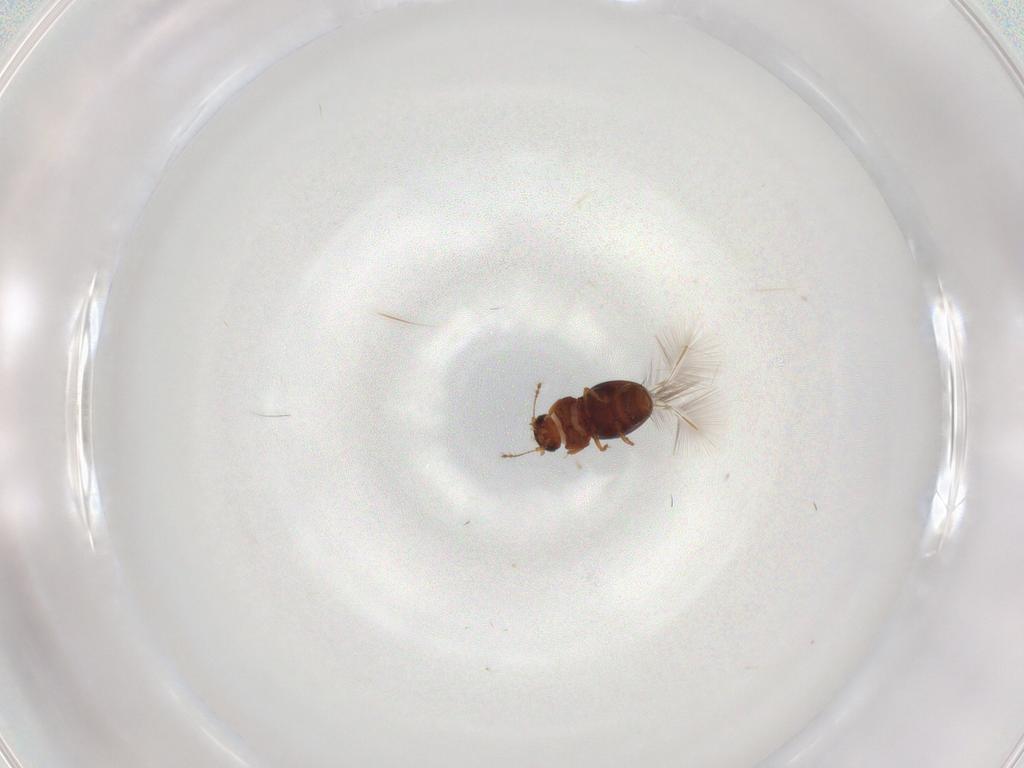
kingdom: Animalia
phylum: Arthropoda
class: Insecta
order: Coleoptera
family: Ptiliidae
